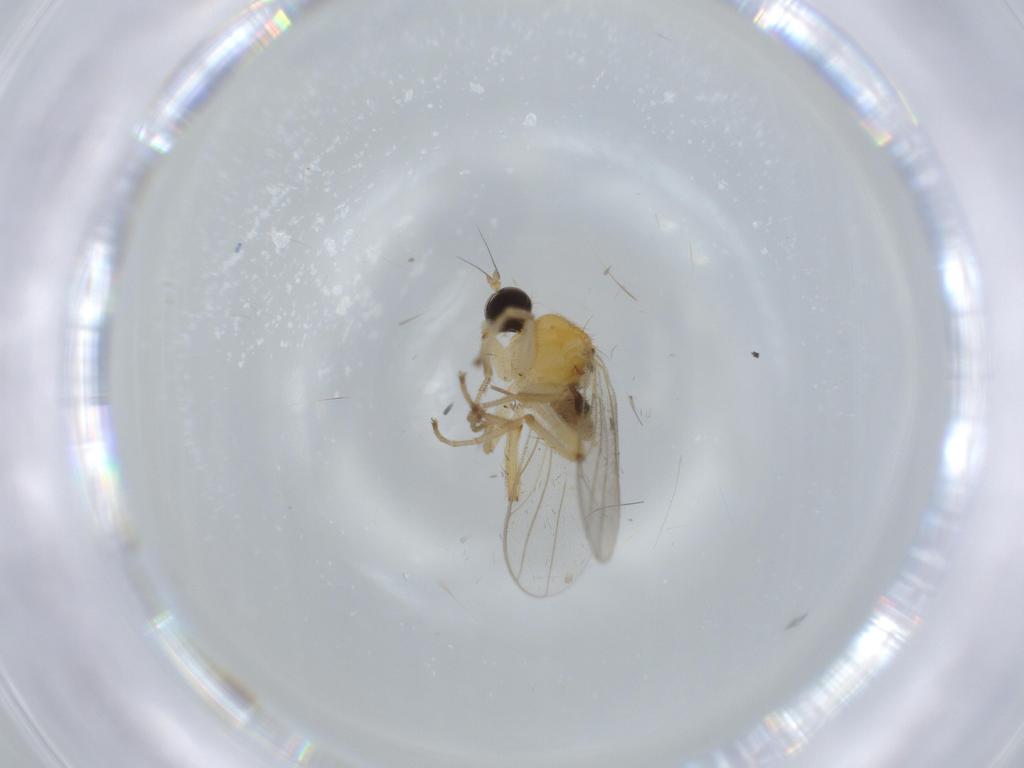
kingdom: Animalia
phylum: Arthropoda
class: Insecta
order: Diptera
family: Hybotidae
